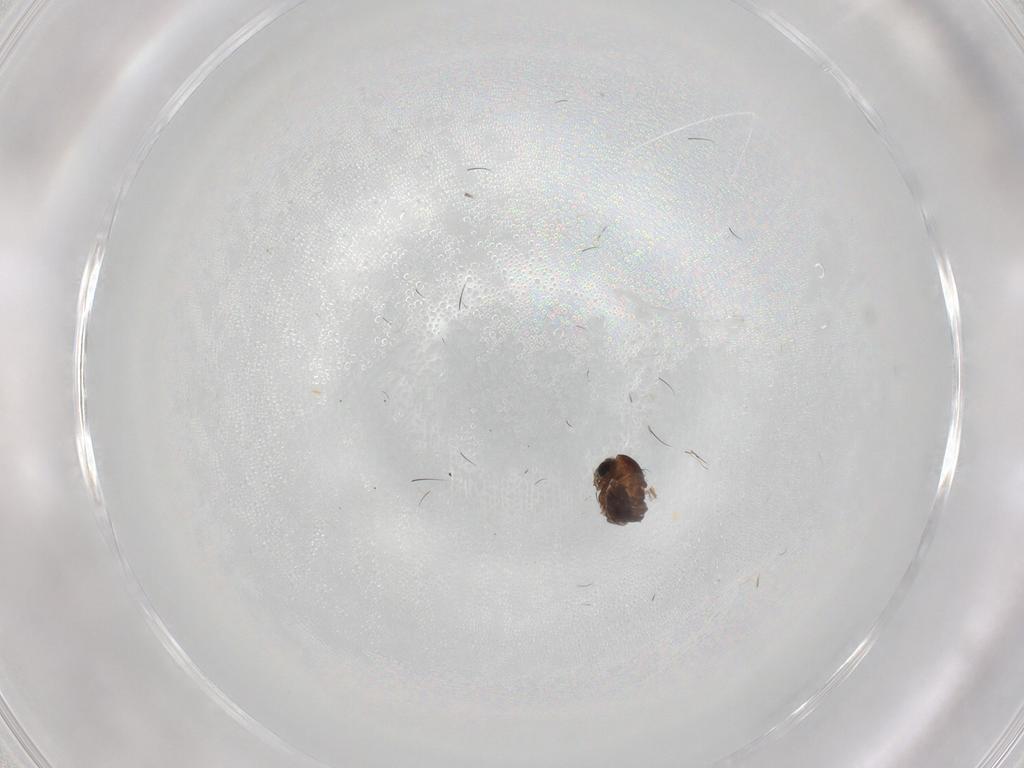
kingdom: Animalia
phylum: Arthropoda
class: Insecta
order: Diptera
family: Chironomidae
